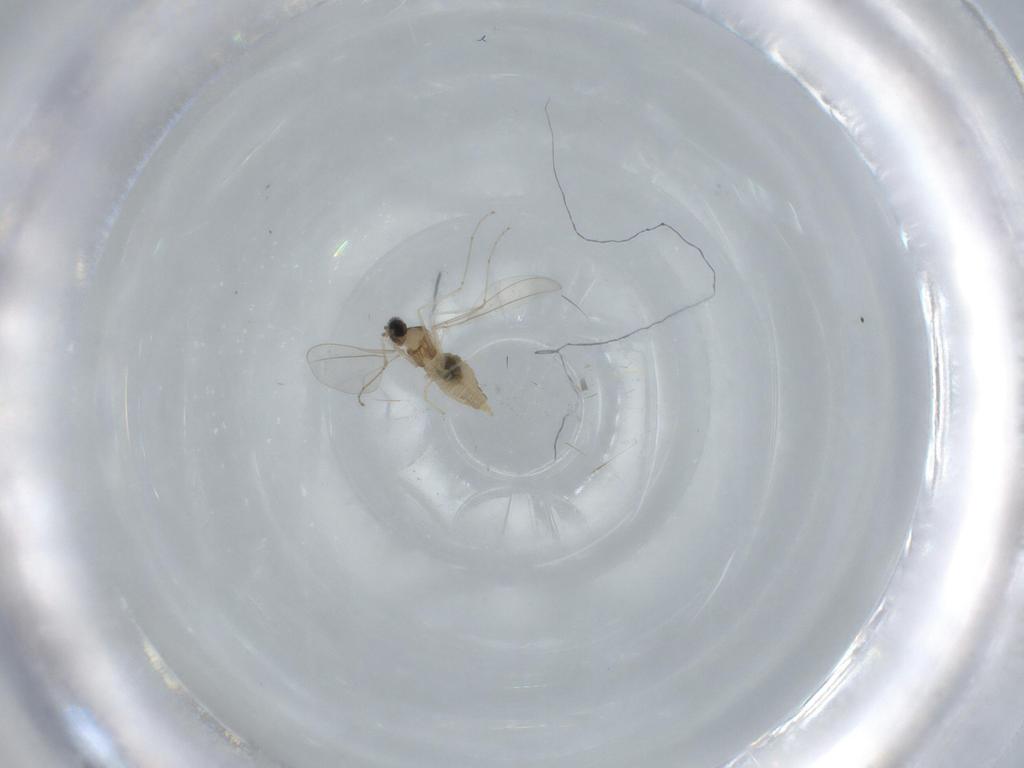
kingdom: Animalia
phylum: Arthropoda
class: Insecta
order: Diptera
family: Cecidomyiidae
